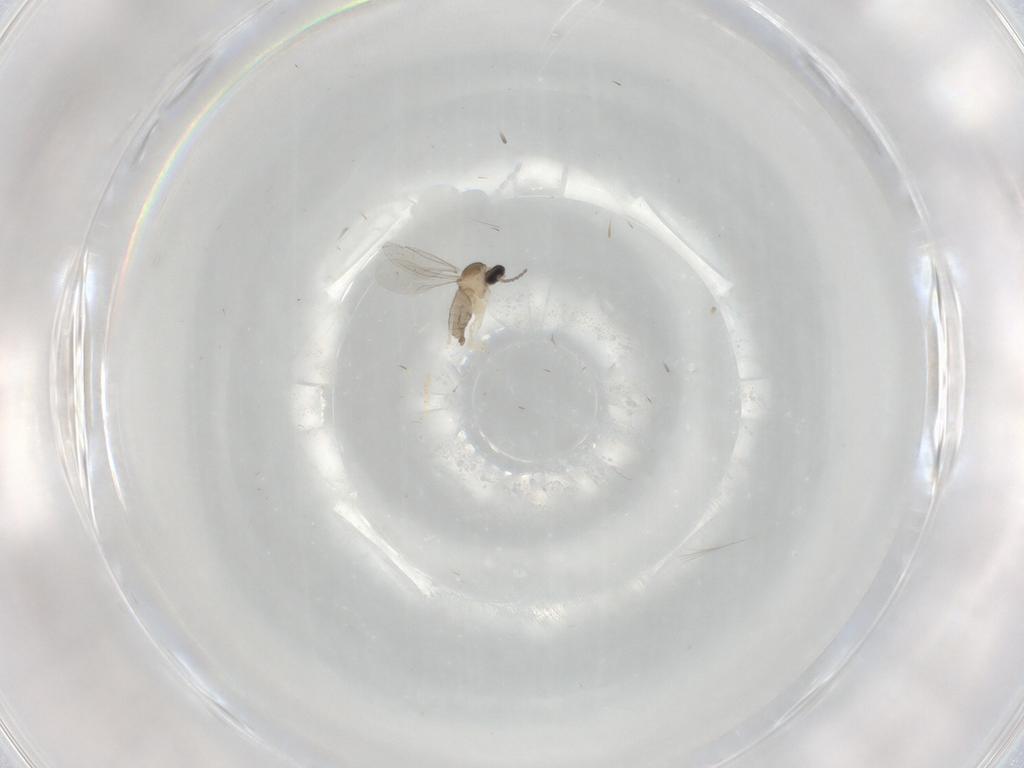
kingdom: Animalia
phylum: Arthropoda
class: Insecta
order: Diptera
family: Cecidomyiidae
